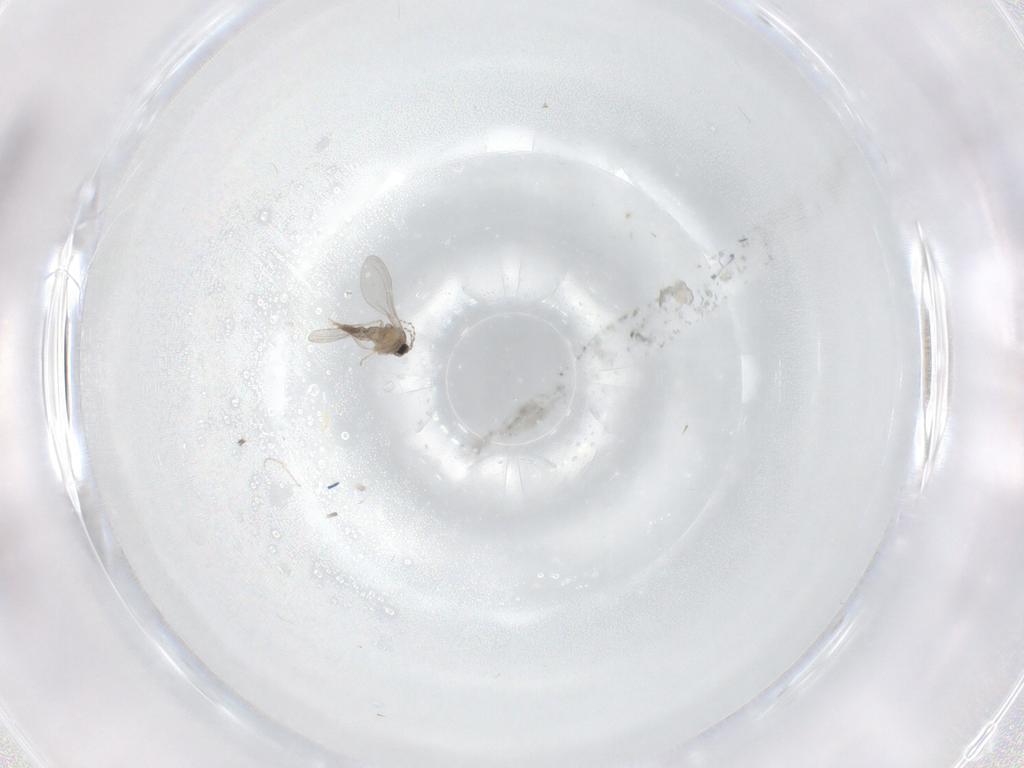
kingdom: Animalia
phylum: Arthropoda
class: Insecta
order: Diptera
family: Cecidomyiidae
